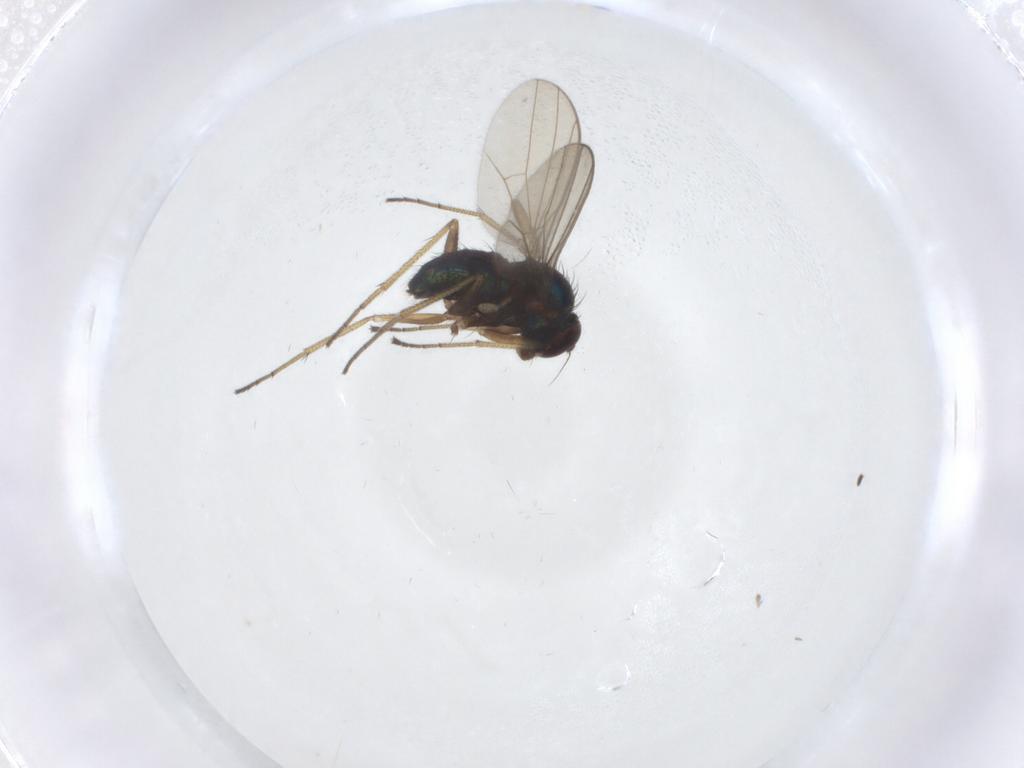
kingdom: Animalia
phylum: Arthropoda
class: Insecta
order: Diptera
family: Dolichopodidae
